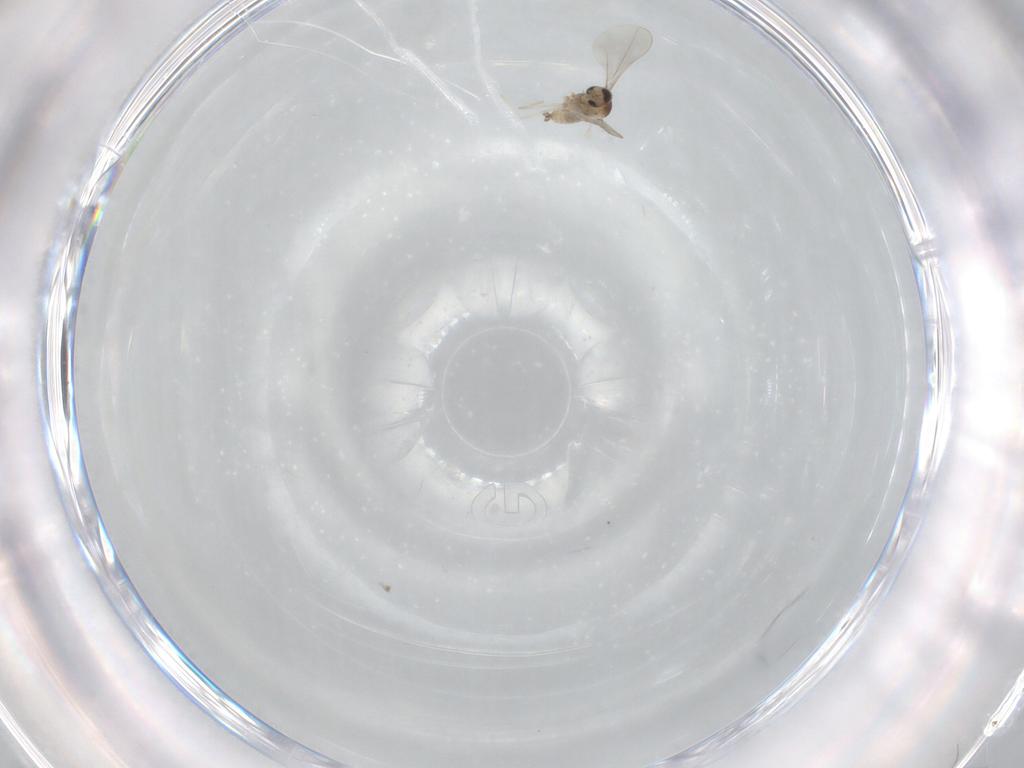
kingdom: Animalia
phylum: Arthropoda
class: Insecta
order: Diptera
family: Cecidomyiidae
